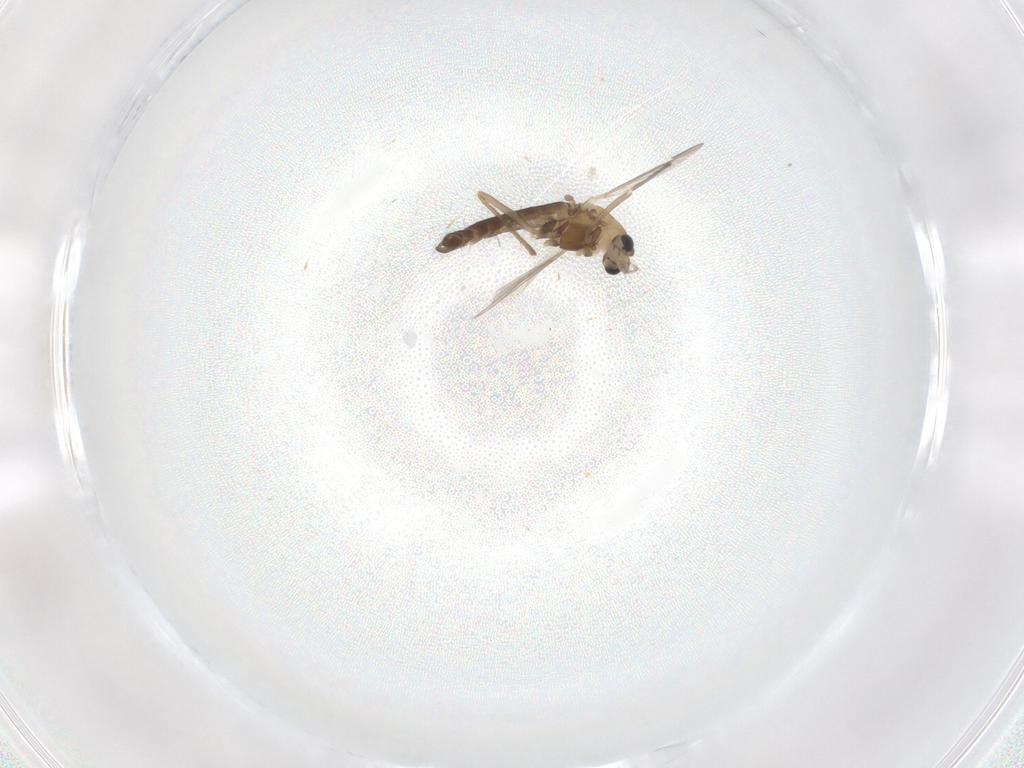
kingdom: Animalia
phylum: Arthropoda
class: Insecta
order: Diptera
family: Chironomidae
